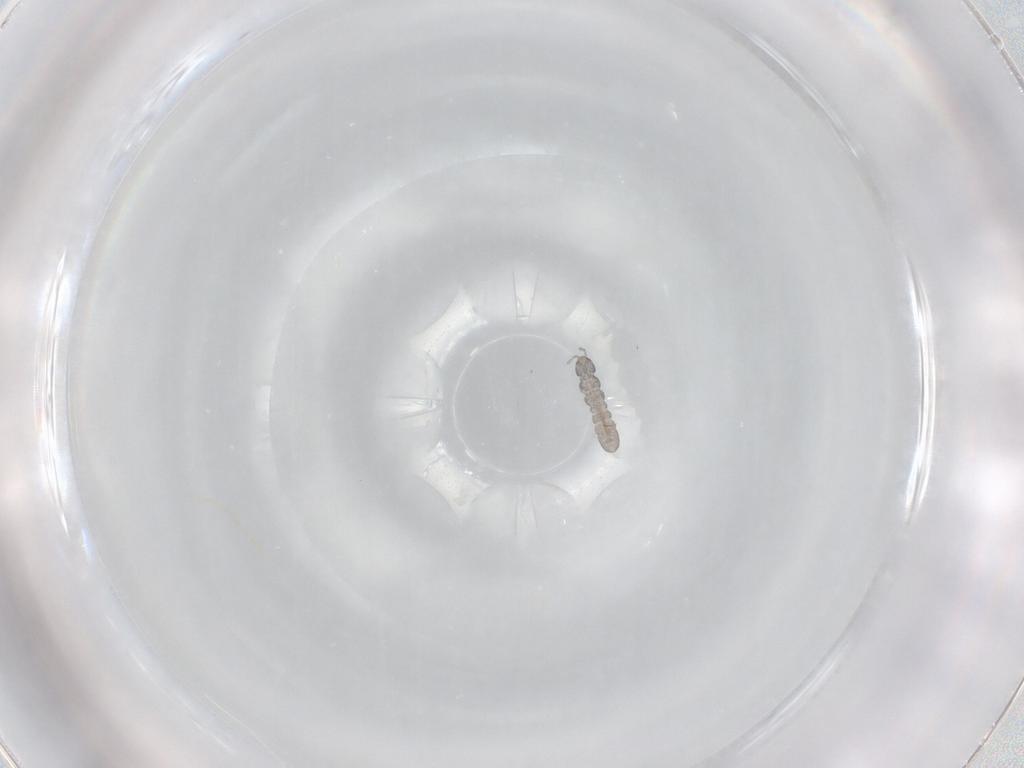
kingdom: Animalia
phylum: Arthropoda
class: Collembola
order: Entomobryomorpha
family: Isotomidae
